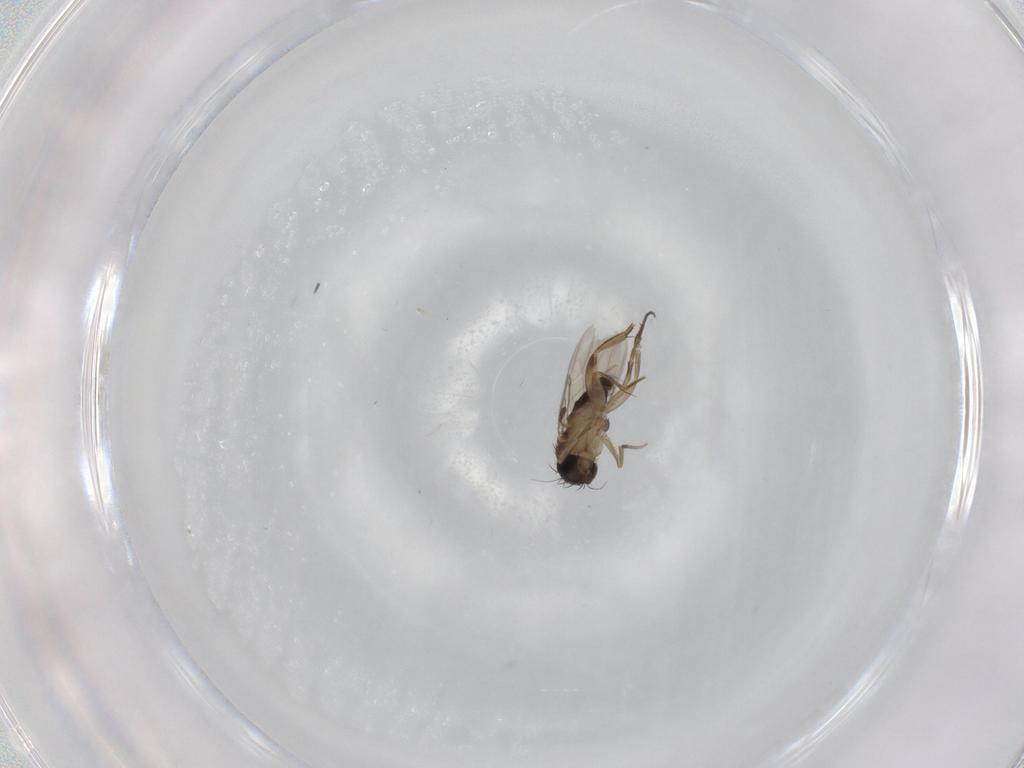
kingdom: Animalia
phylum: Arthropoda
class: Insecta
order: Diptera
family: Phoridae
